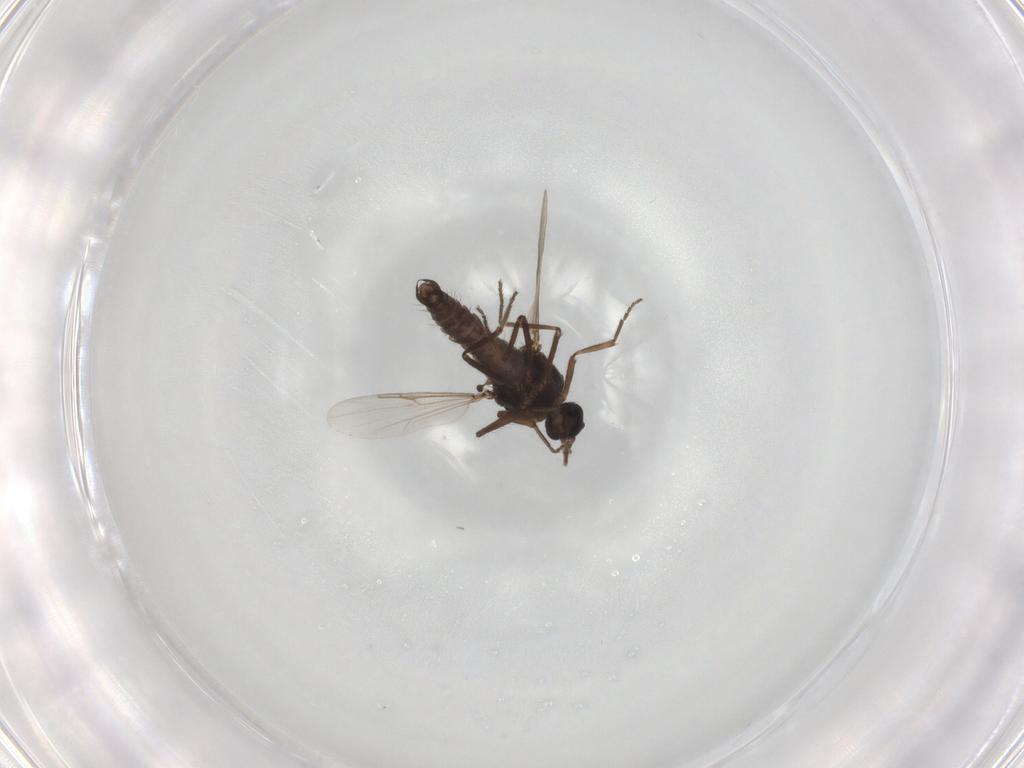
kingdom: Animalia
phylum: Arthropoda
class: Insecta
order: Diptera
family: Ceratopogonidae
